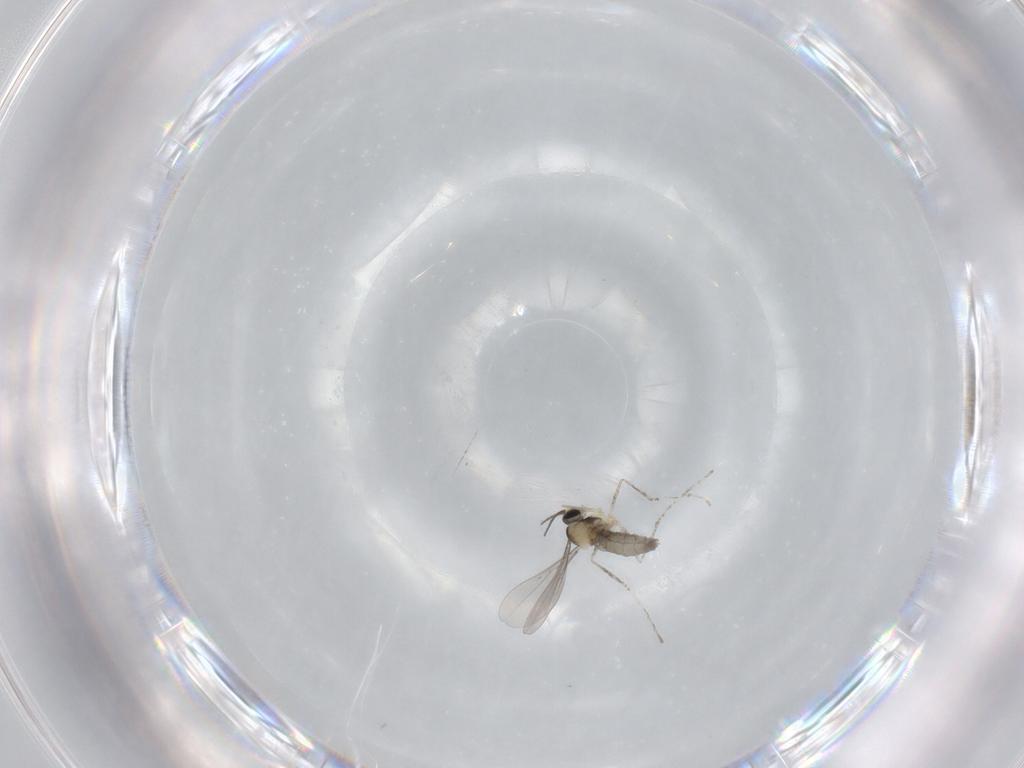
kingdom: Animalia
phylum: Arthropoda
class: Insecta
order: Diptera
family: Cecidomyiidae
